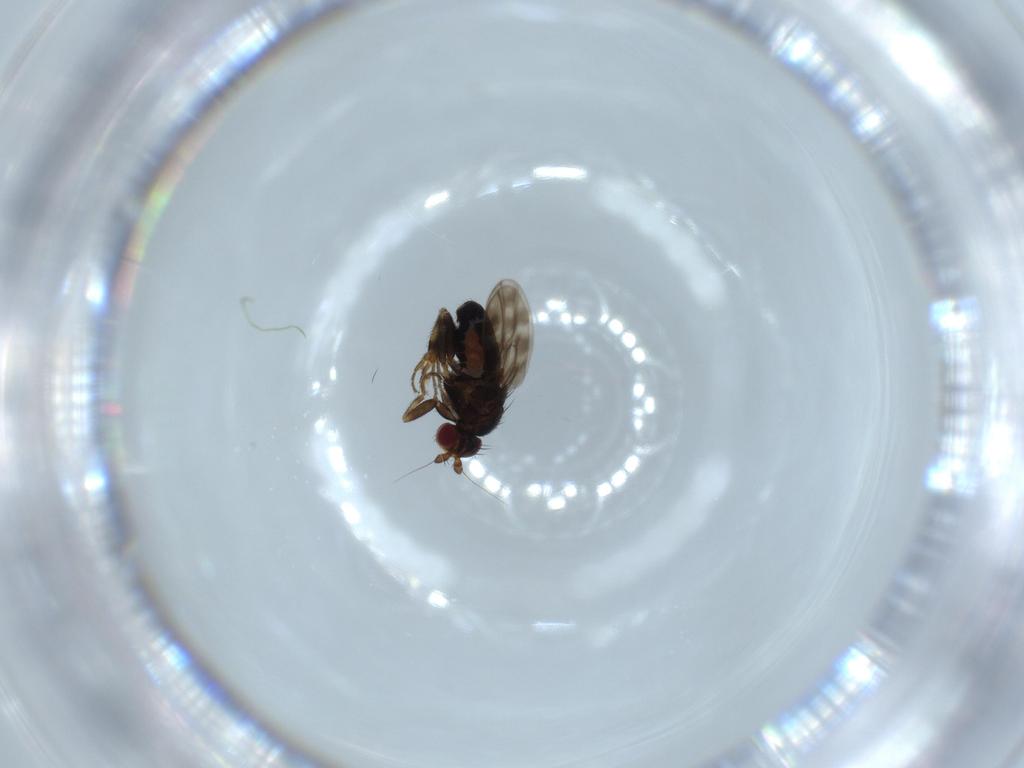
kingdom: Animalia
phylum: Arthropoda
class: Insecta
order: Diptera
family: Sphaeroceridae
